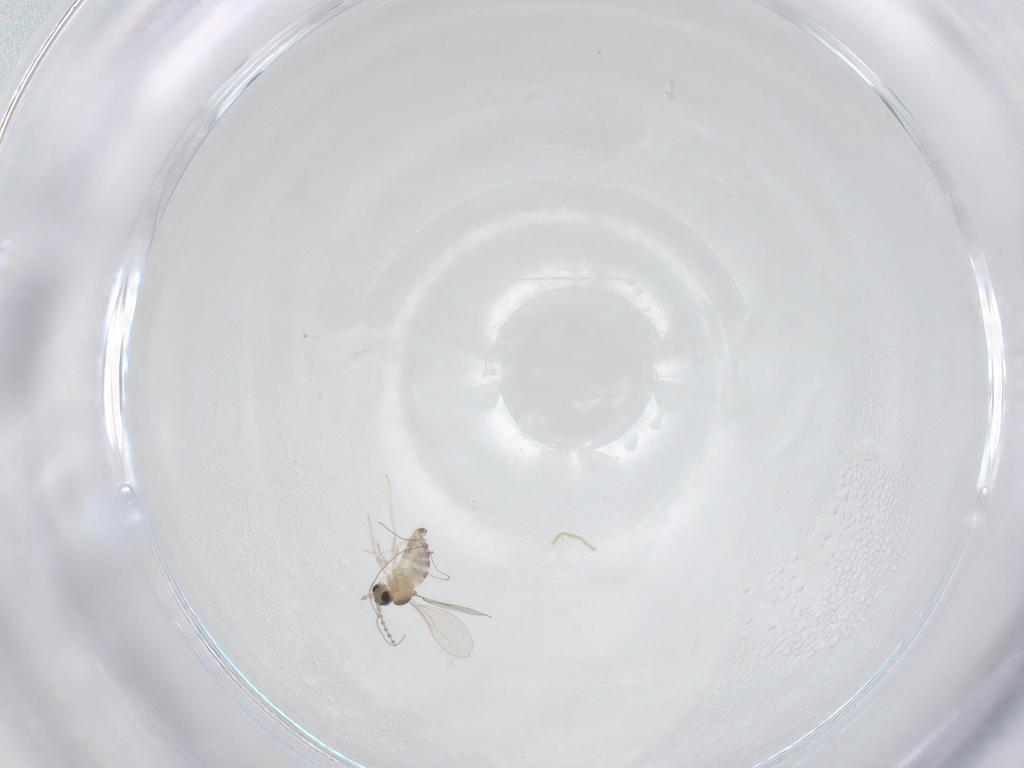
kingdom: Animalia
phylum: Arthropoda
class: Insecta
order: Diptera
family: Cecidomyiidae
